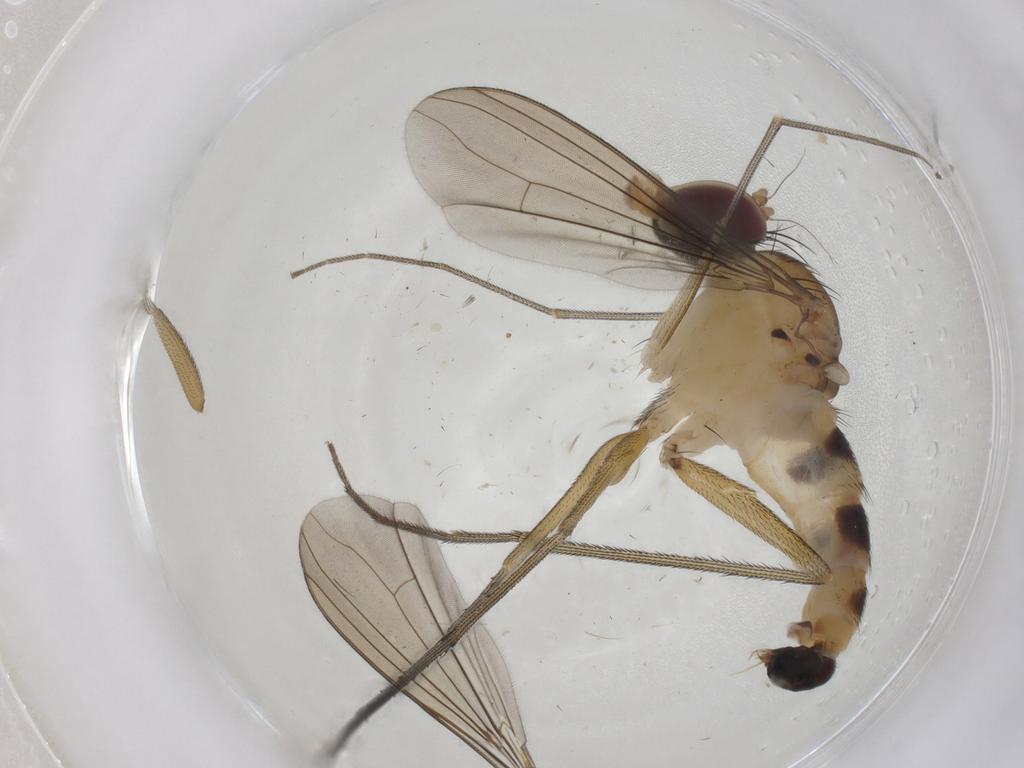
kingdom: Animalia
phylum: Arthropoda
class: Insecta
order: Diptera
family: Dolichopodidae
